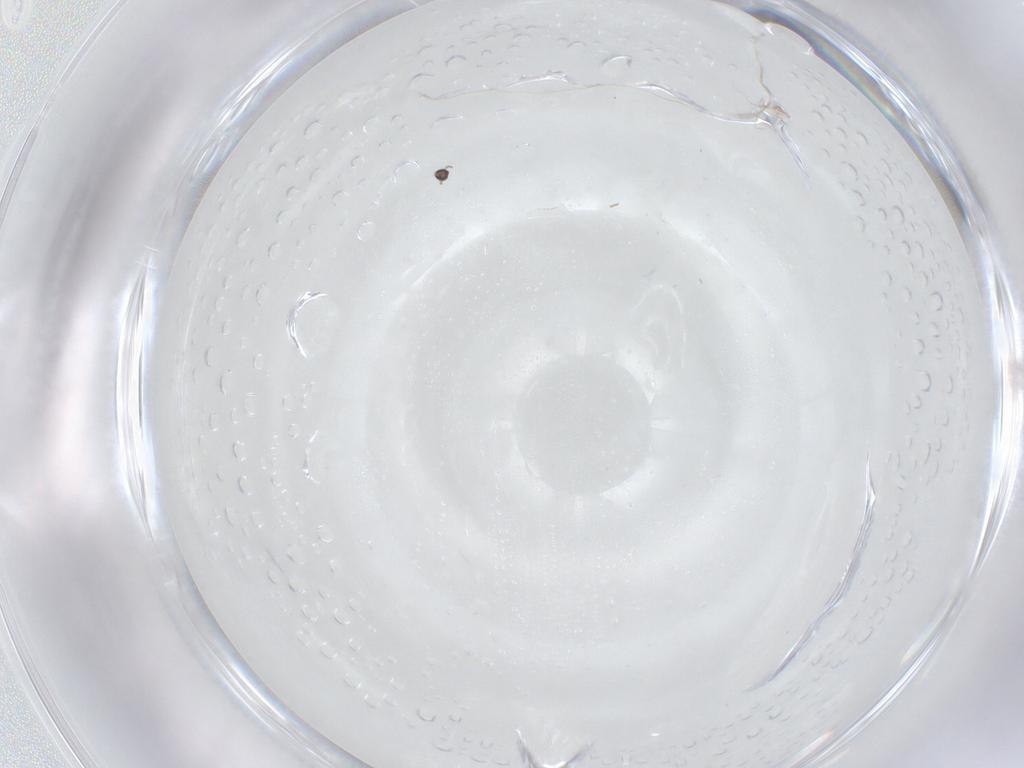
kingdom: Animalia
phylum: Arthropoda
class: Insecta
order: Diptera
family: Cecidomyiidae
